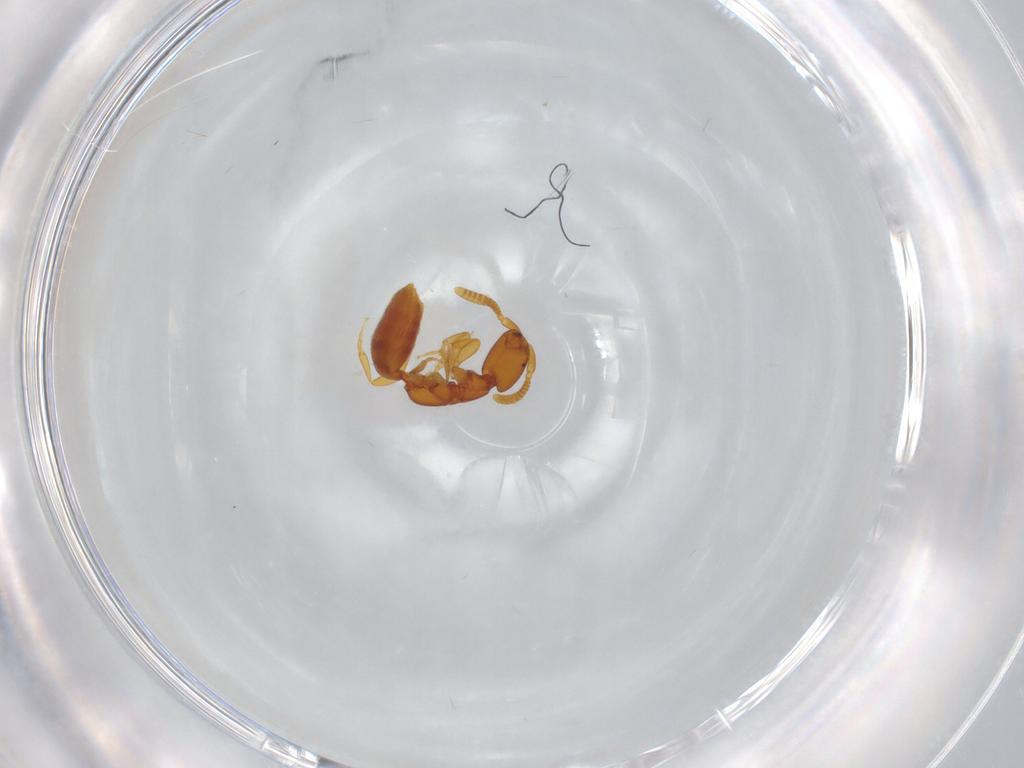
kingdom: Animalia
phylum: Arthropoda
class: Insecta
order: Hymenoptera
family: Bethylidae
